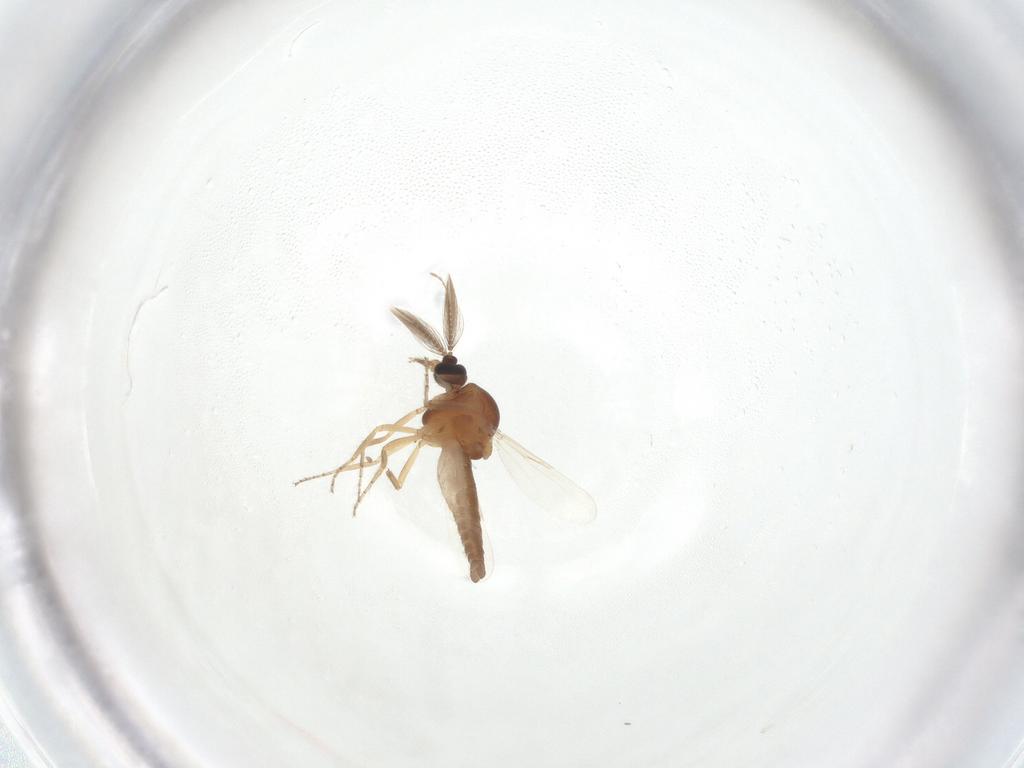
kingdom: Animalia
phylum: Arthropoda
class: Insecta
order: Diptera
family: Ceratopogonidae
